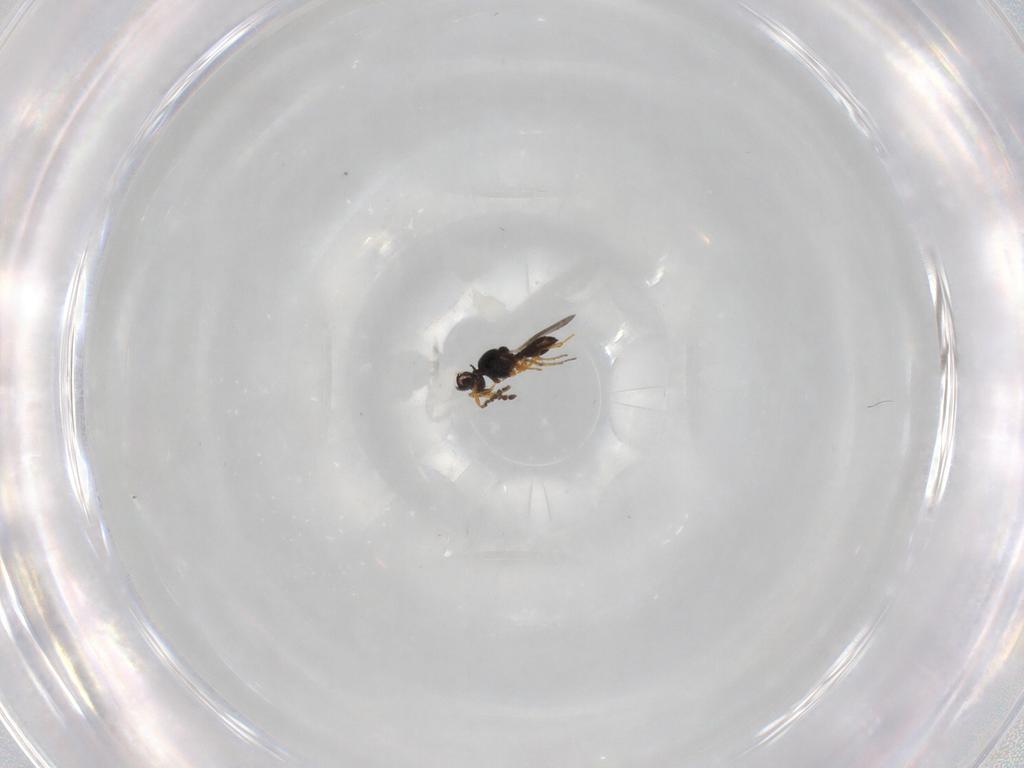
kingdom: Animalia
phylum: Arthropoda
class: Insecta
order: Hymenoptera
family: Platygastridae
